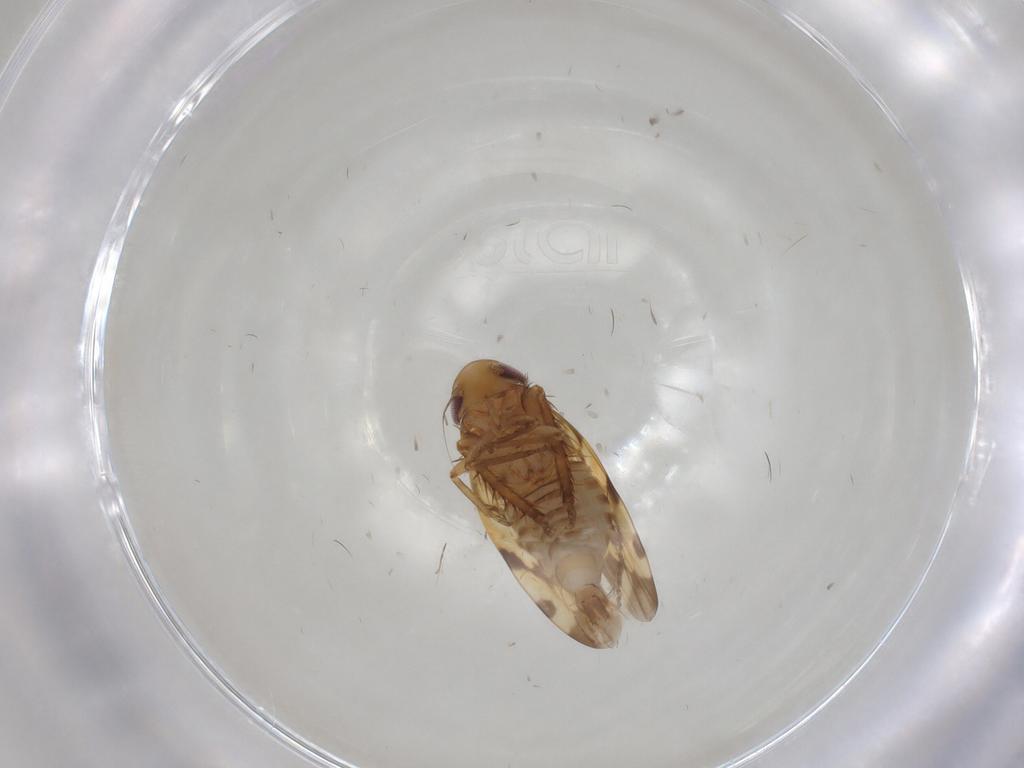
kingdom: Animalia
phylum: Arthropoda
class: Insecta
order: Hemiptera
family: Cicadellidae
